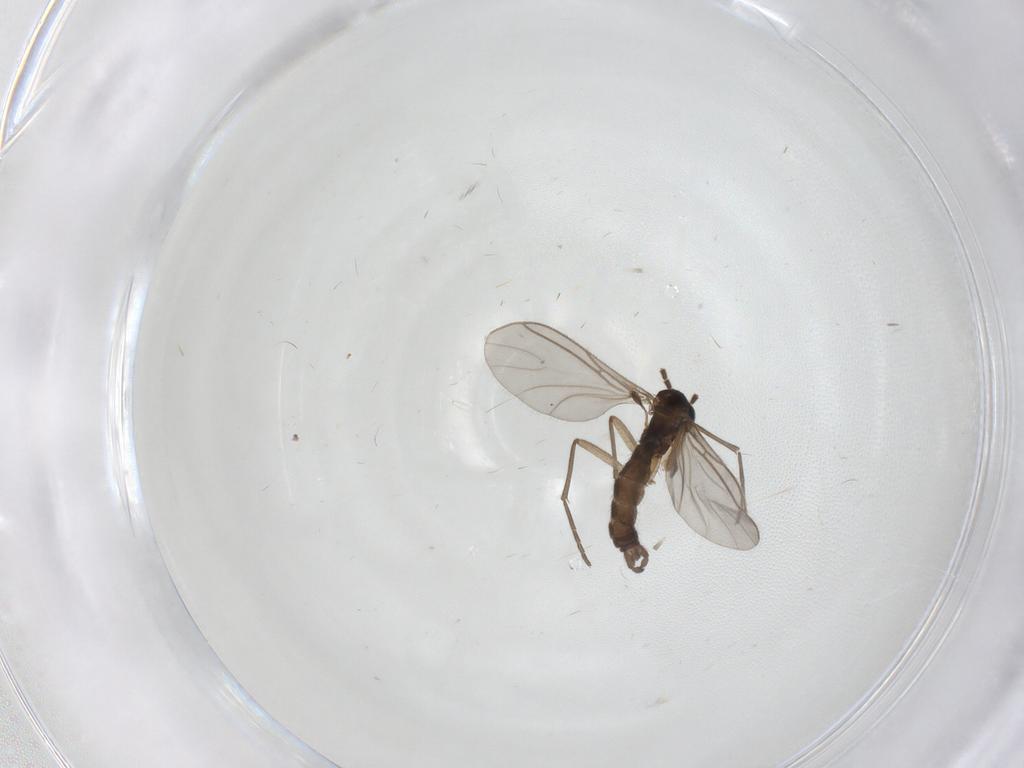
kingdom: Animalia
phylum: Arthropoda
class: Insecta
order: Diptera
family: Sciaridae
